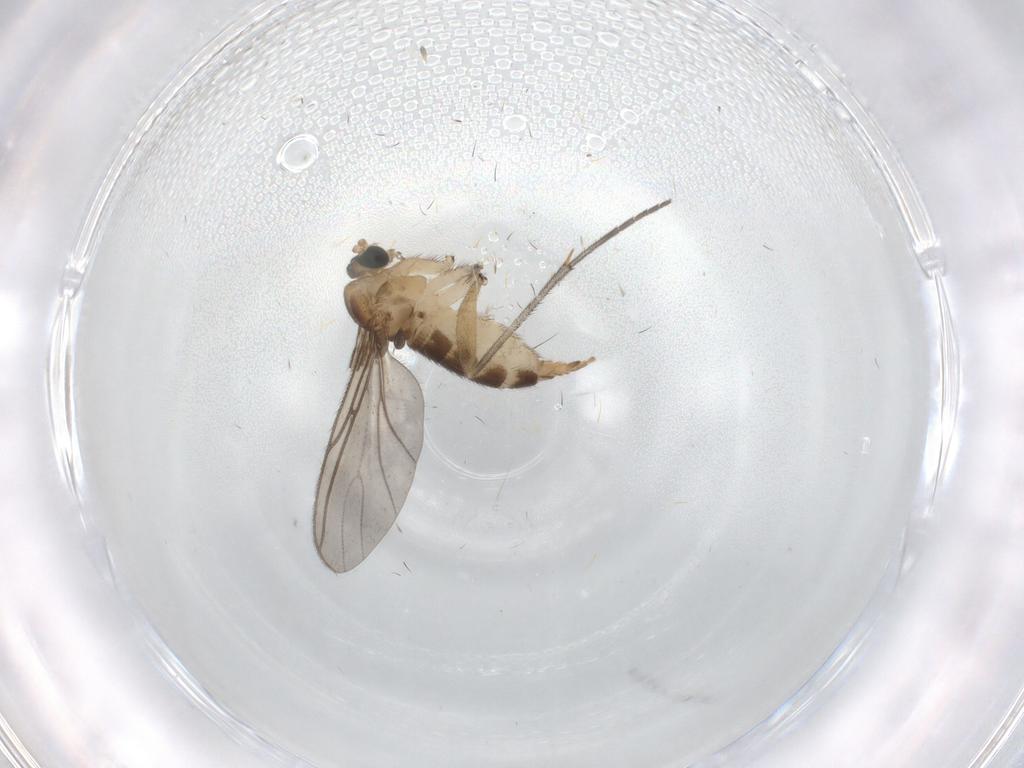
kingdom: Animalia
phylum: Arthropoda
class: Insecta
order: Diptera
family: Sciaridae
